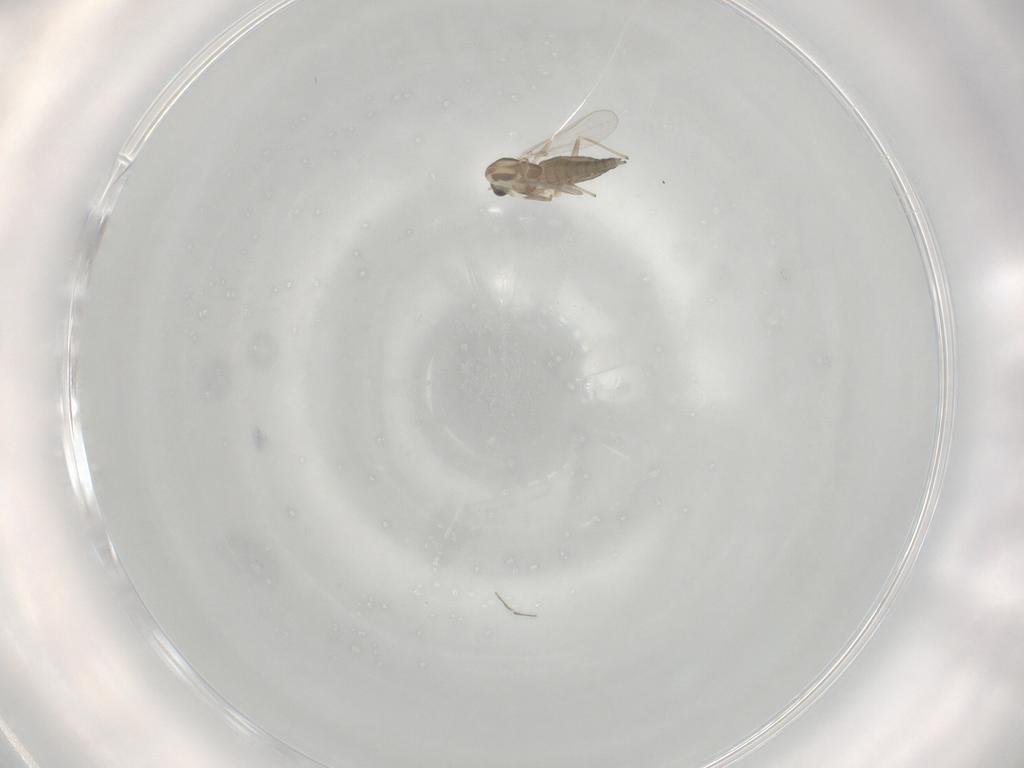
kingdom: Animalia
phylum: Arthropoda
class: Insecta
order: Diptera
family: Chironomidae
